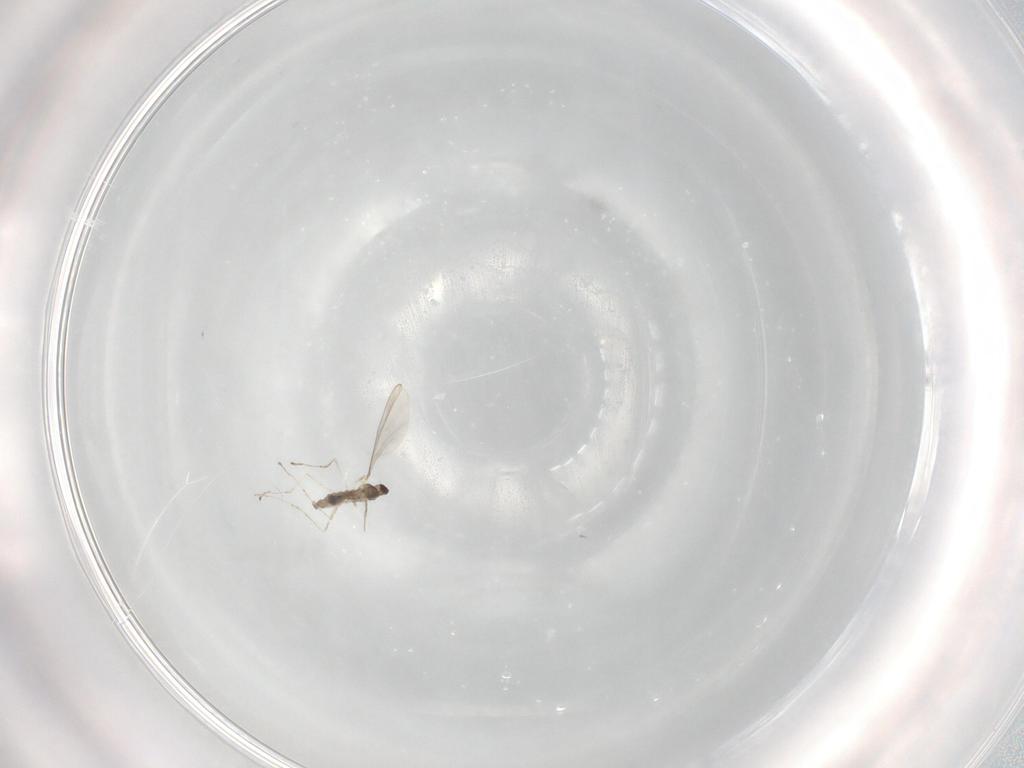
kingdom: Animalia
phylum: Arthropoda
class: Insecta
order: Diptera
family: Cecidomyiidae
